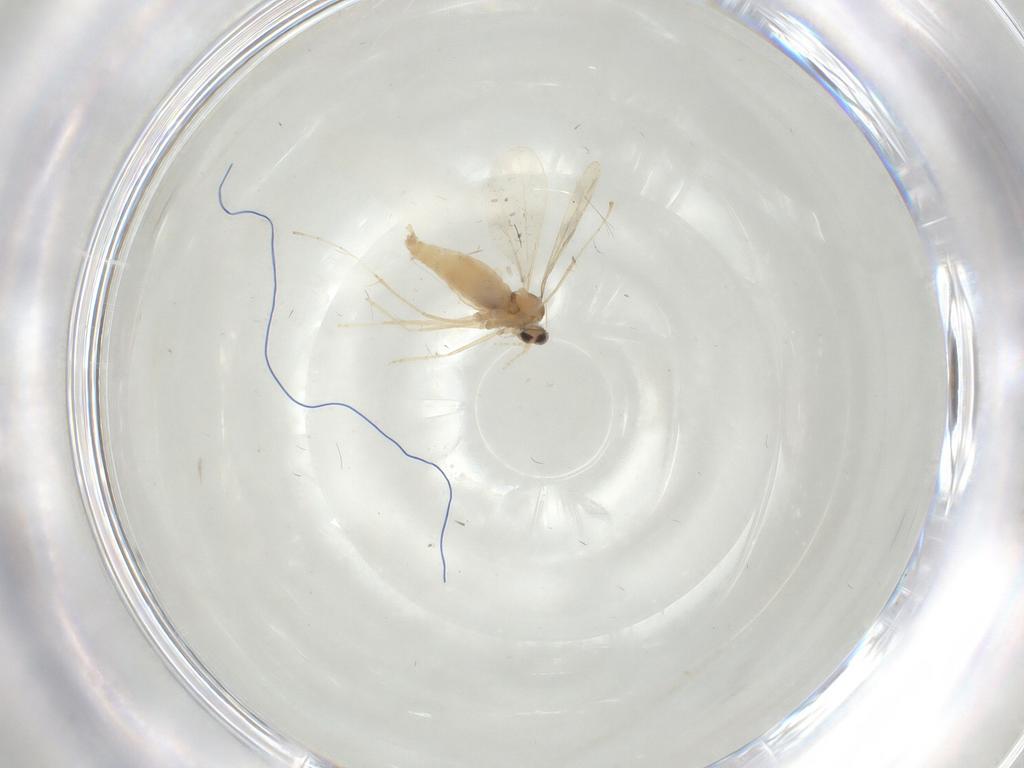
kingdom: Animalia
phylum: Arthropoda
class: Insecta
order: Diptera
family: Cecidomyiidae
